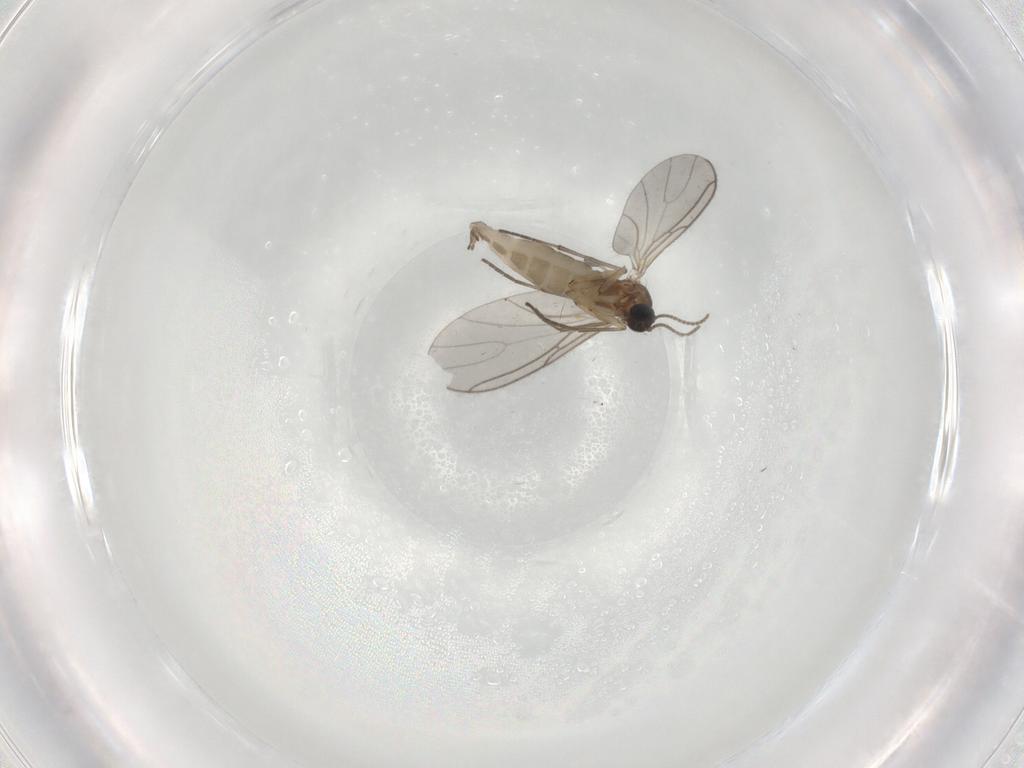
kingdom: Animalia
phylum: Arthropoda
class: Insecta
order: Diptera
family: Sciaridae
